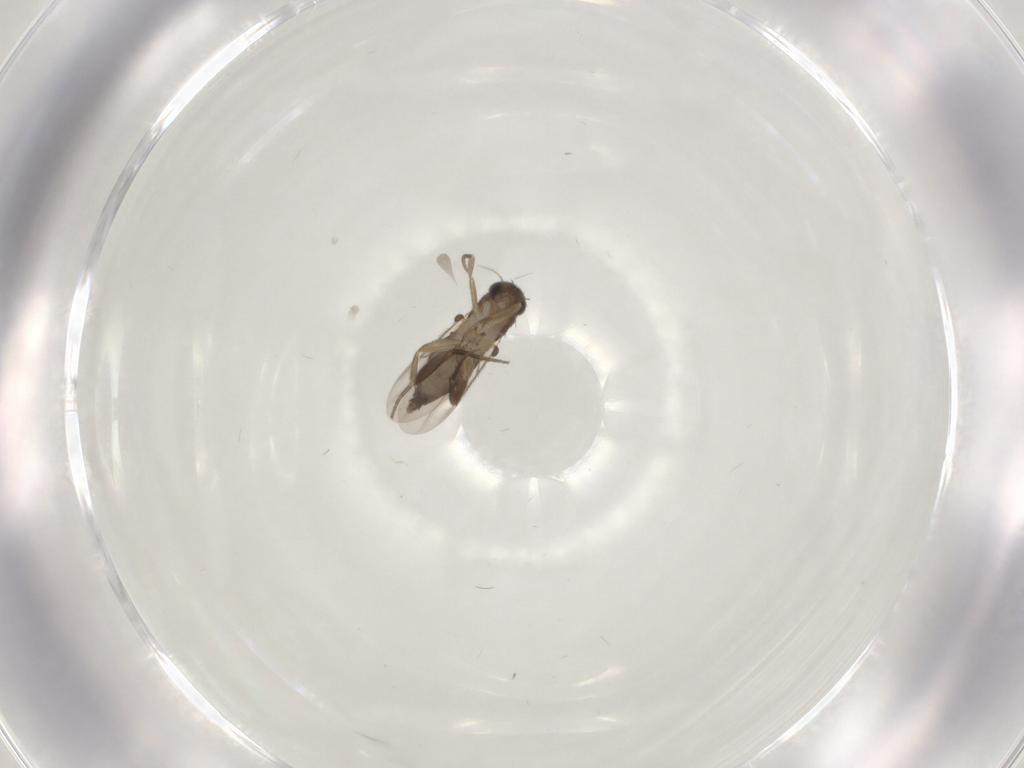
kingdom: Animalia
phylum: Arthropoda
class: Insecta
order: Diptera
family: Phoridae
